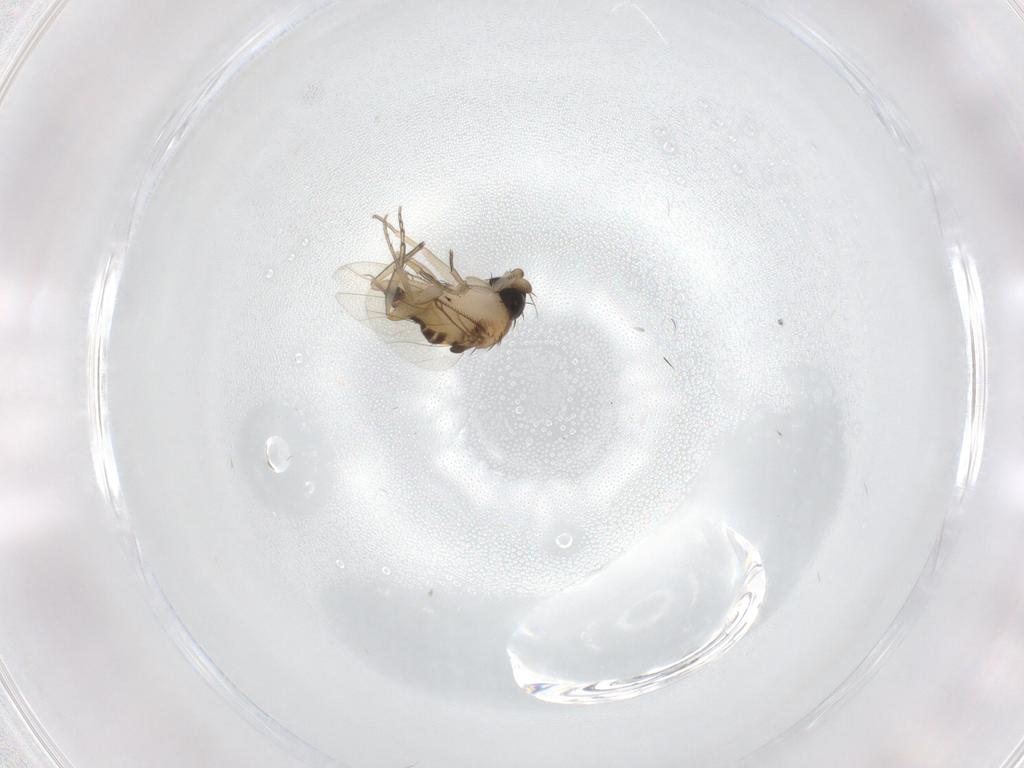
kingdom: Animalia
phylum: Arthropoda
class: Insecta
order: Diptera
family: Phoridae
